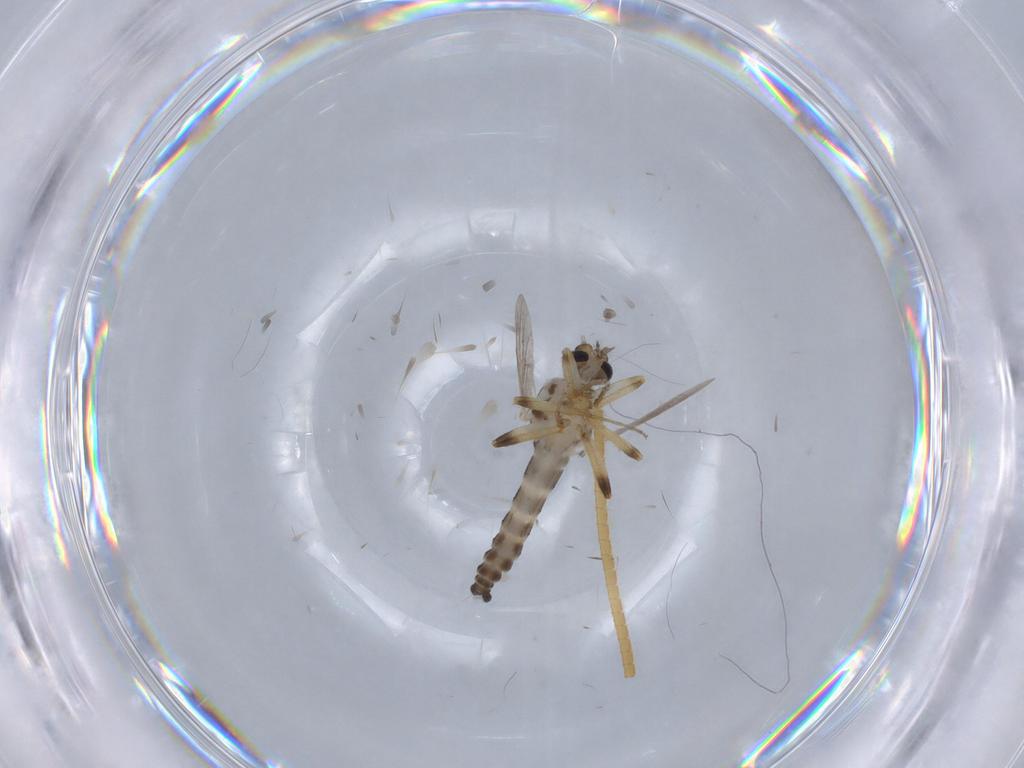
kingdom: Animalia
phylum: Arthropoda
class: Insecta
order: Diptera
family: Ceratopogonidae
